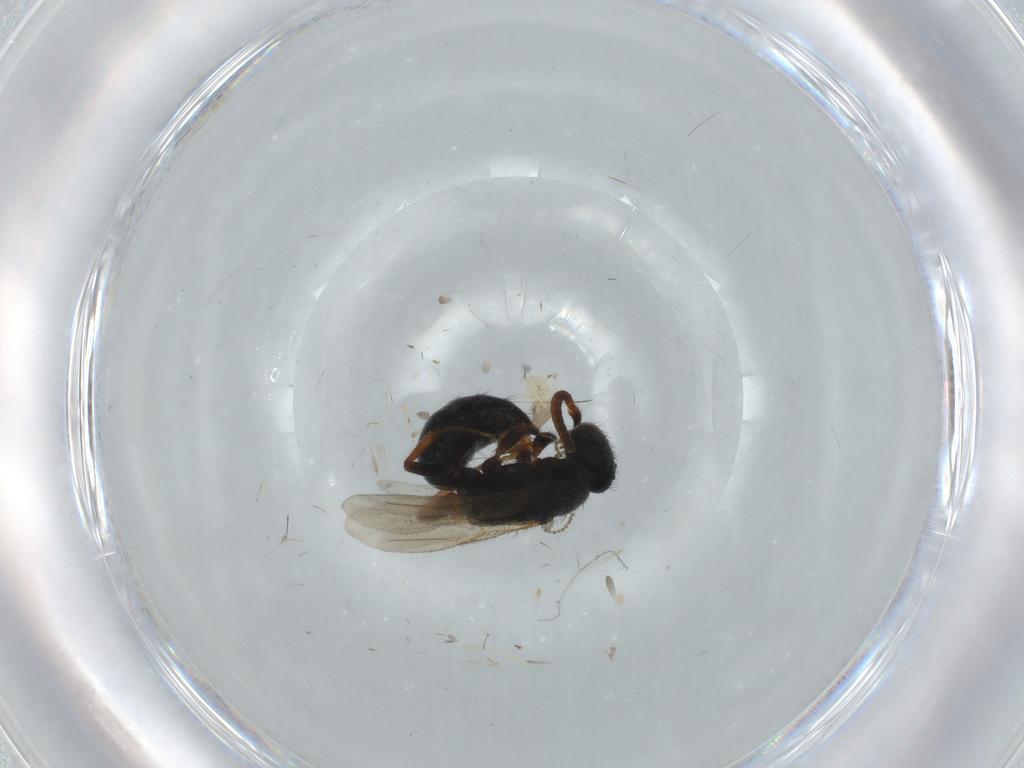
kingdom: Animalia
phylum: Arthropoda
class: Insecta
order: Hymenoptera
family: Bethylidae
